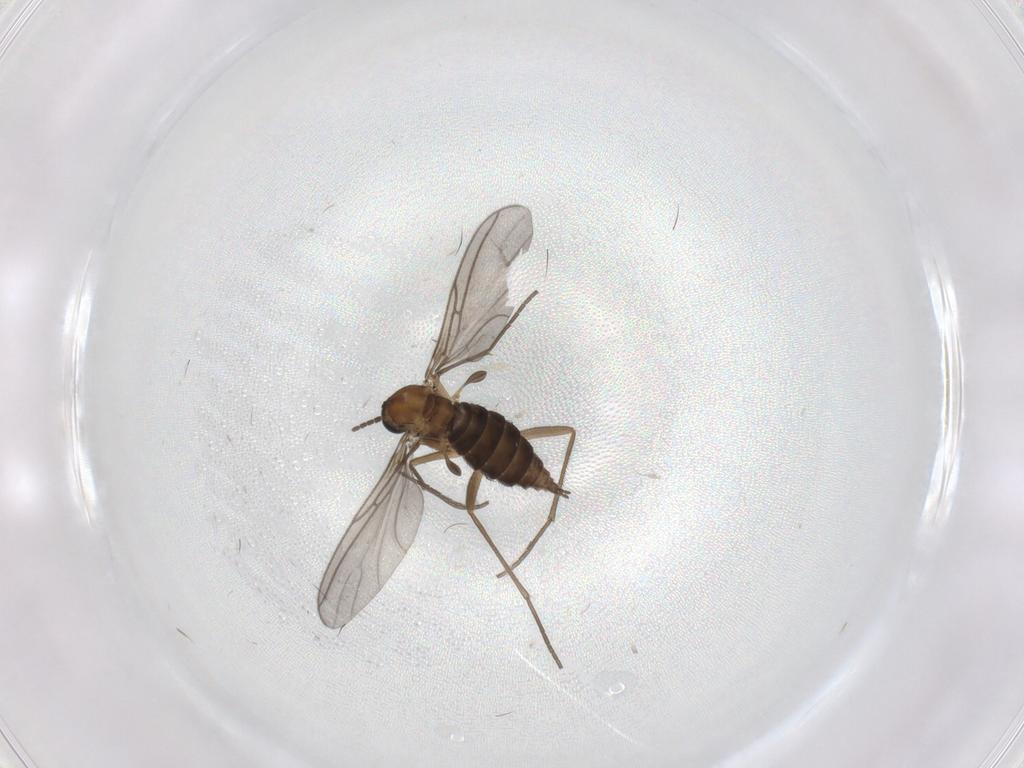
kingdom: Animalia
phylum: Arthropoda
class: Insecta
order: Diptera
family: Sciaridae
